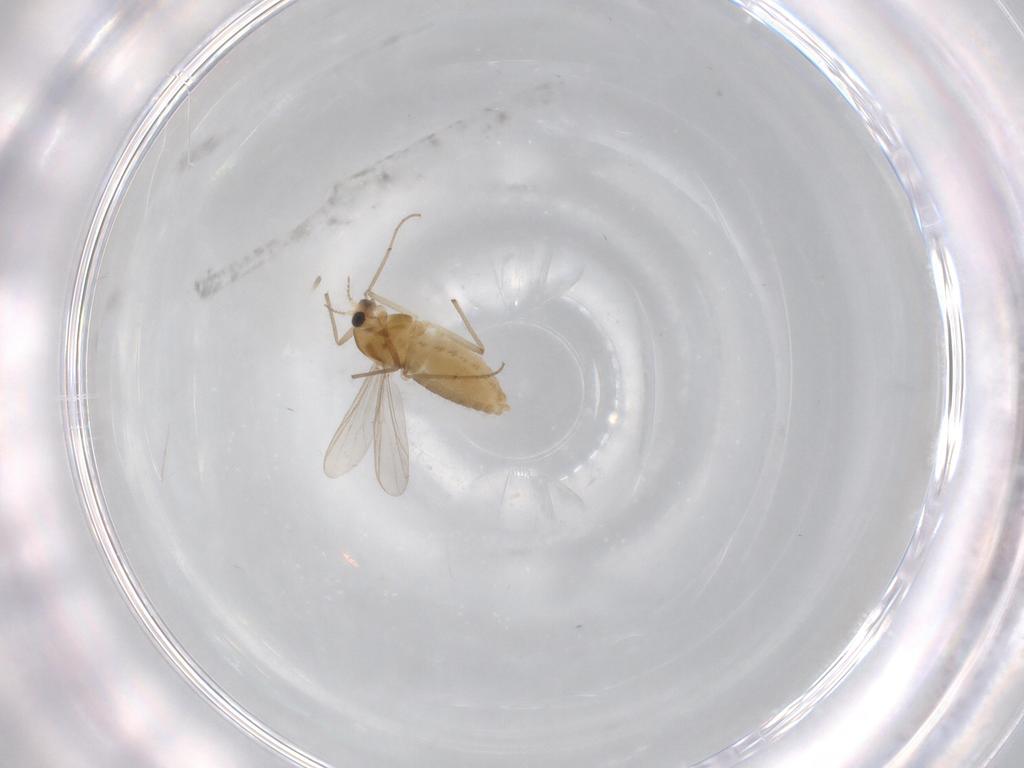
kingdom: Animalia
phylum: Arthropoda
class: Insecta
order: Diptera
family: Chironomidae
